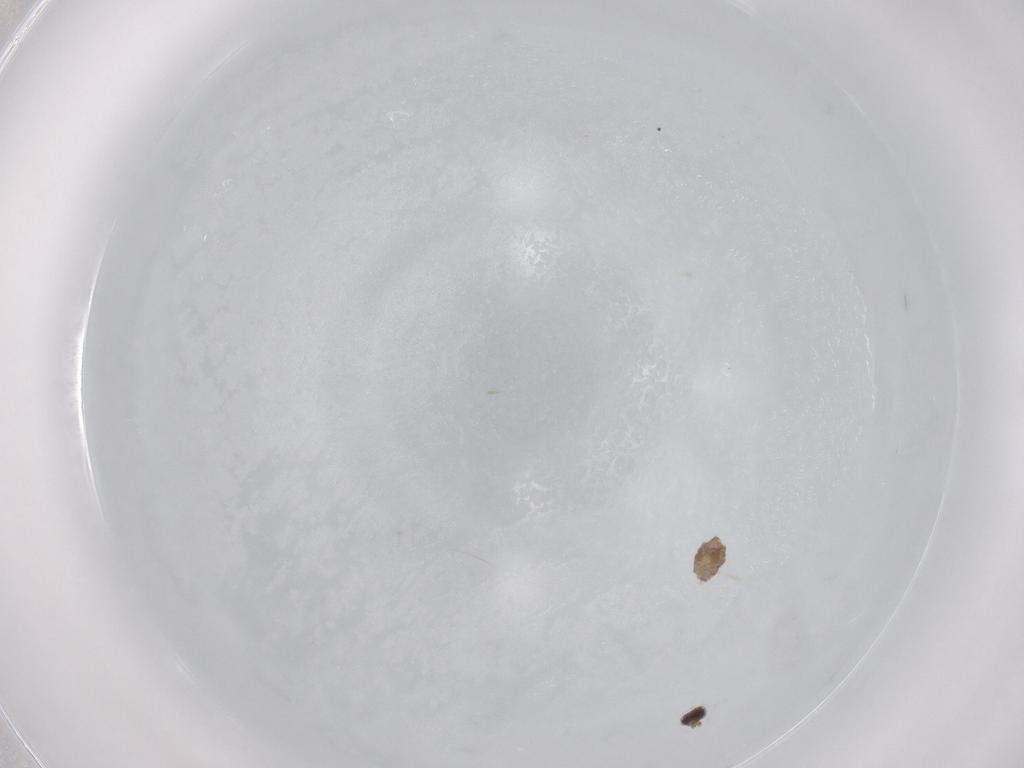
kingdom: Animalia
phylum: Arthropoda
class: Insecta
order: Diptera
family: Cecidomyiidae
